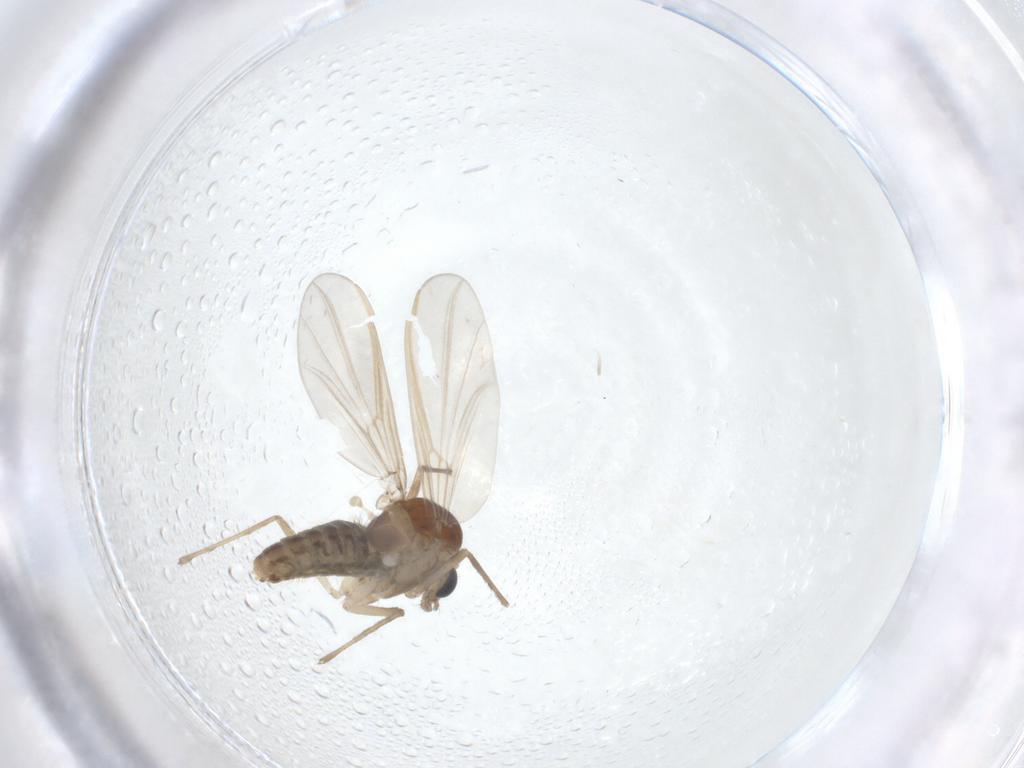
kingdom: Animalia
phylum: Arthropoda
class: Insecta
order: Diptera
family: Chironomidae
